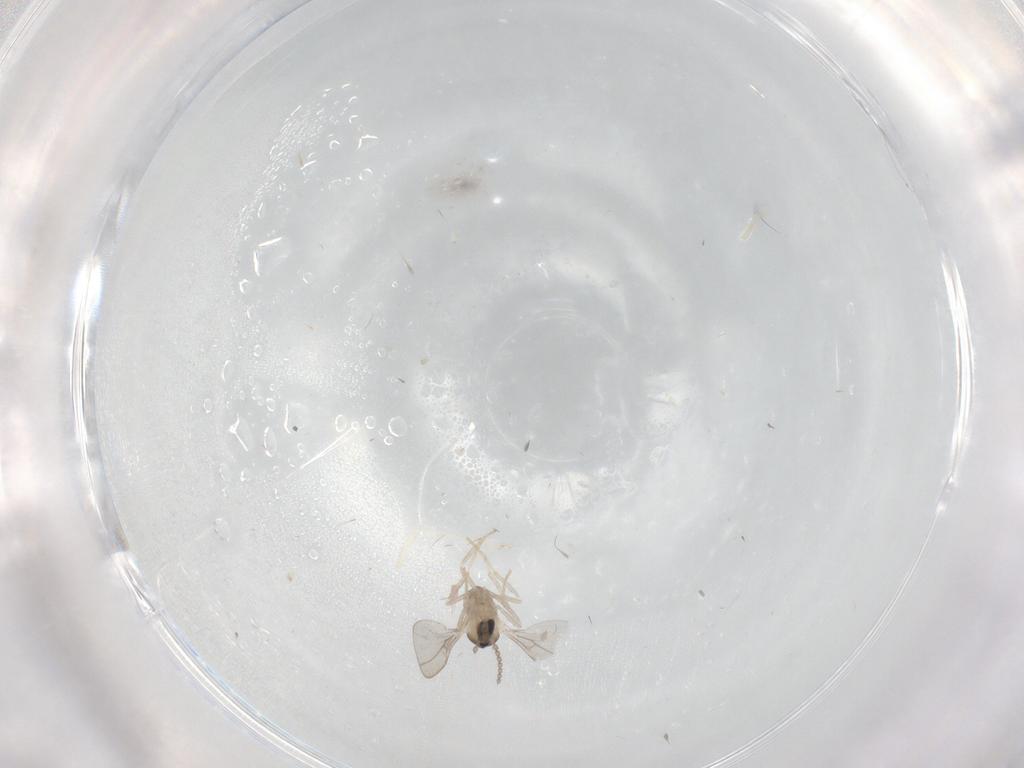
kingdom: Animalia
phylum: Arthropoda
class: Insecta
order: Diptera
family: Cecidomyiidae
